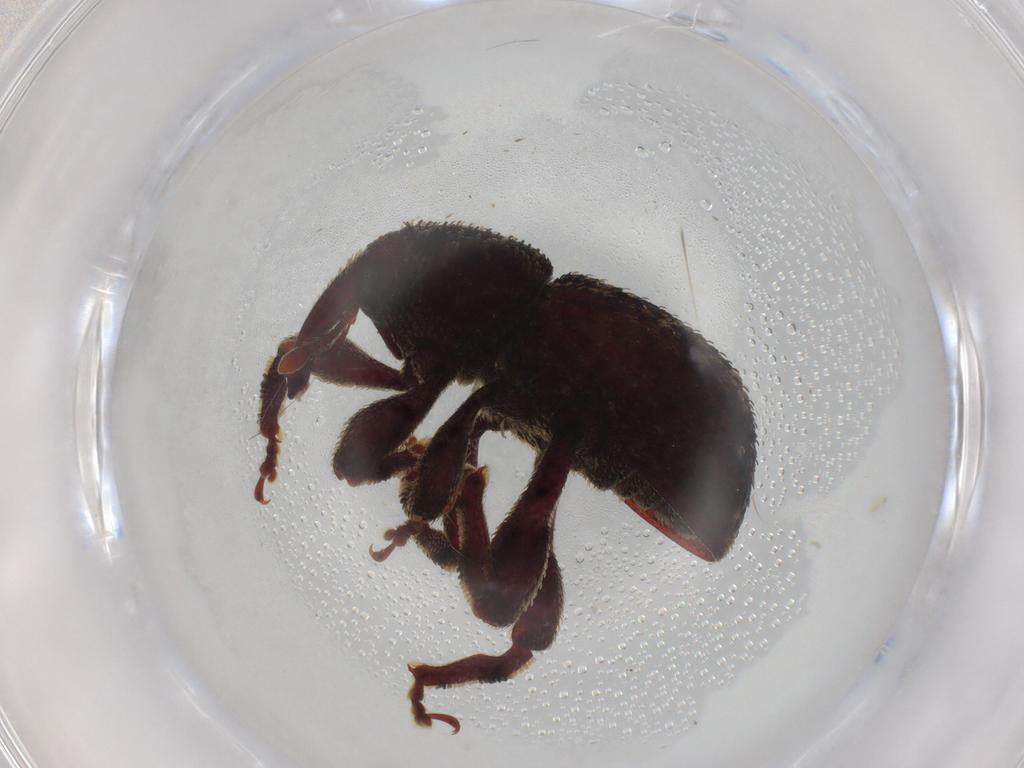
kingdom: Animalia
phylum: Arthropoda
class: Insecta
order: Coleoptera
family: Curculionidae
